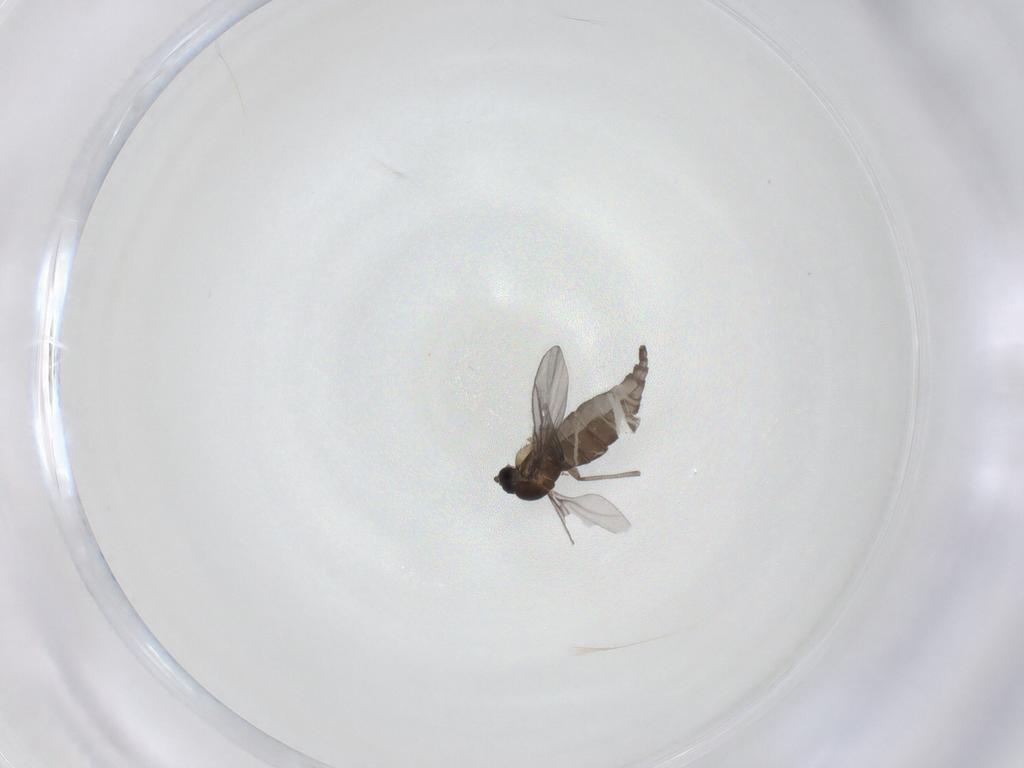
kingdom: Animalia
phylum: Arthropoda
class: Insecta
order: Diptera
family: Sciaridae
